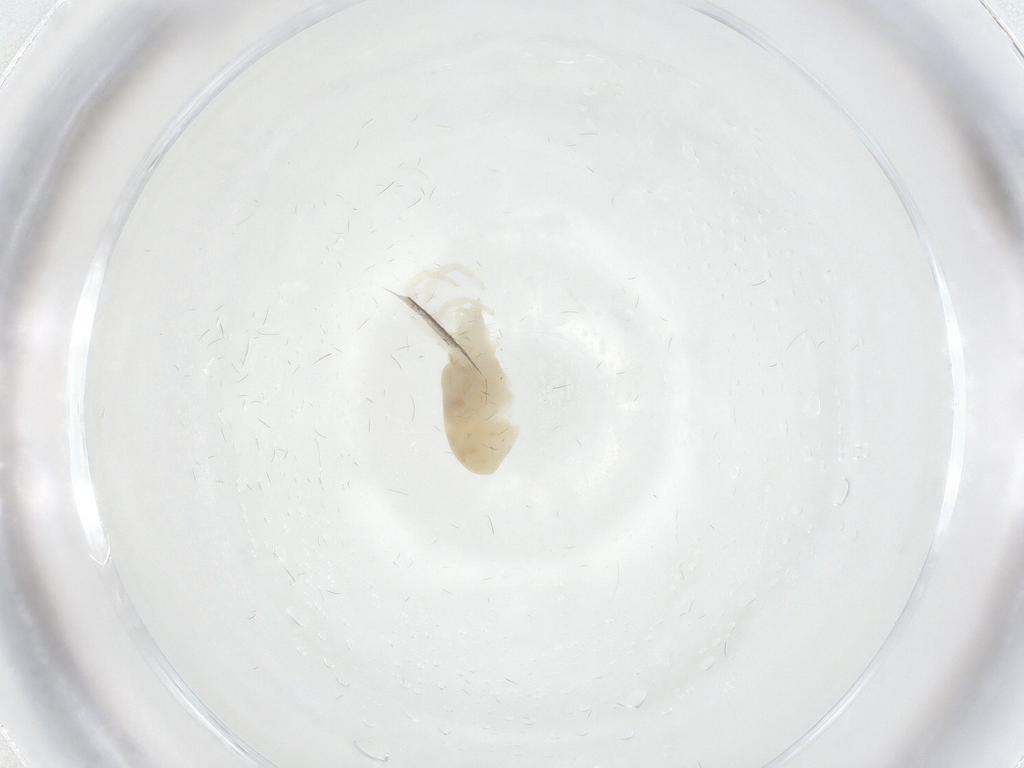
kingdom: Animalia
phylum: Arthropoda
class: Insecta
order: Diptera
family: Limoniidae
